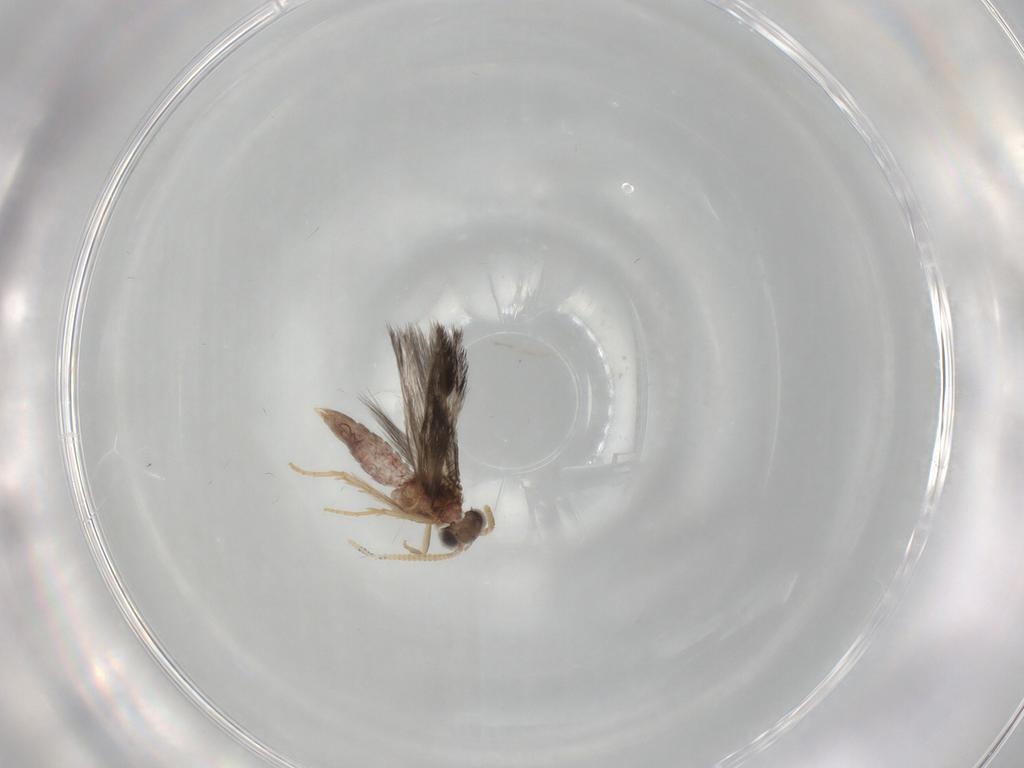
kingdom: Animalia
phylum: Arthropoda
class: Insecta
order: Trichoptera
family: Hydroptilidae
